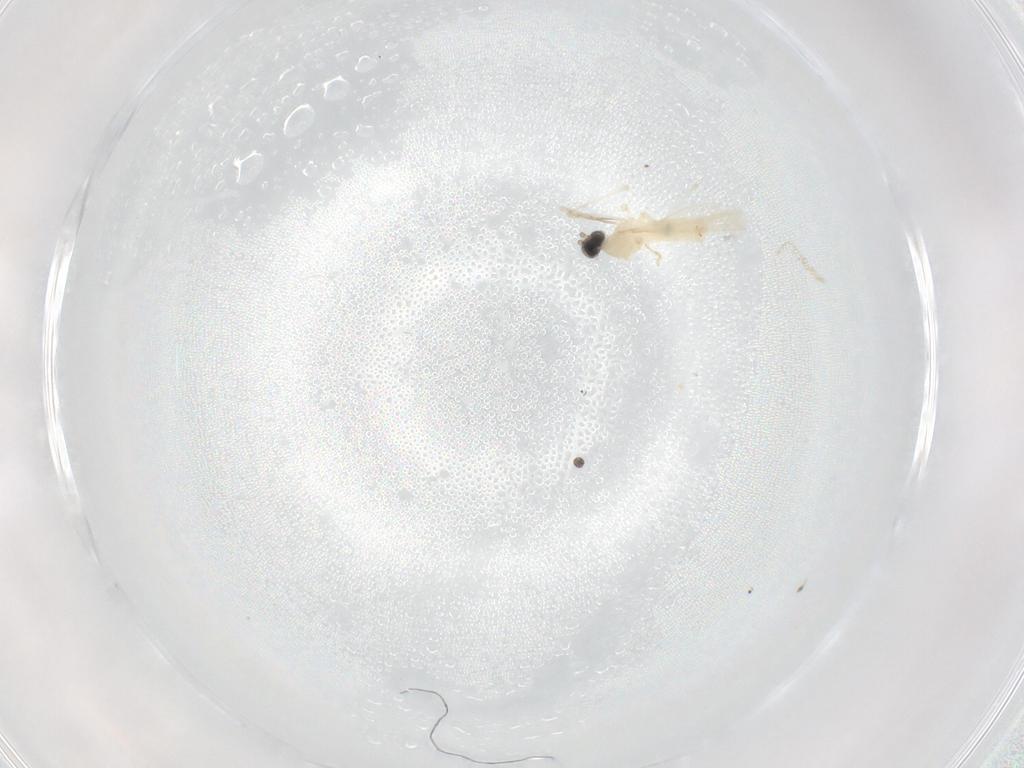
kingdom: Animalia
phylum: Arthropoda
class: Insecta
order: Diptera
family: Cecidomyiidae
